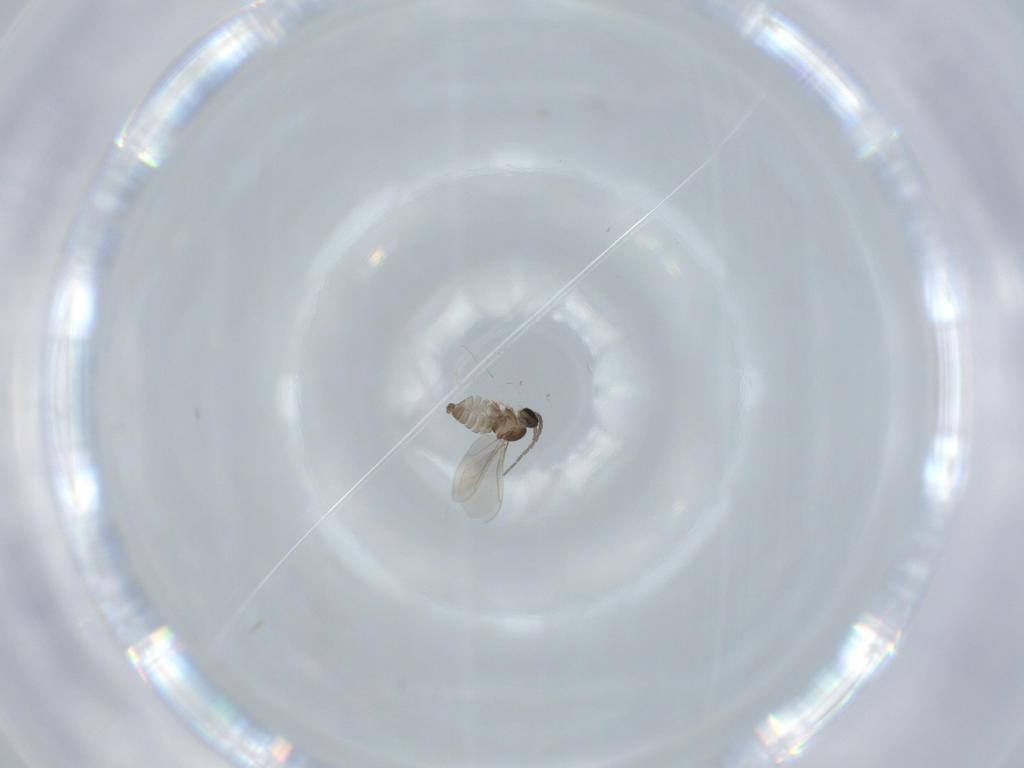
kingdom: Animalia
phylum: Arthropoda
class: Insecta
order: Diptera
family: Cecidomyiidae
